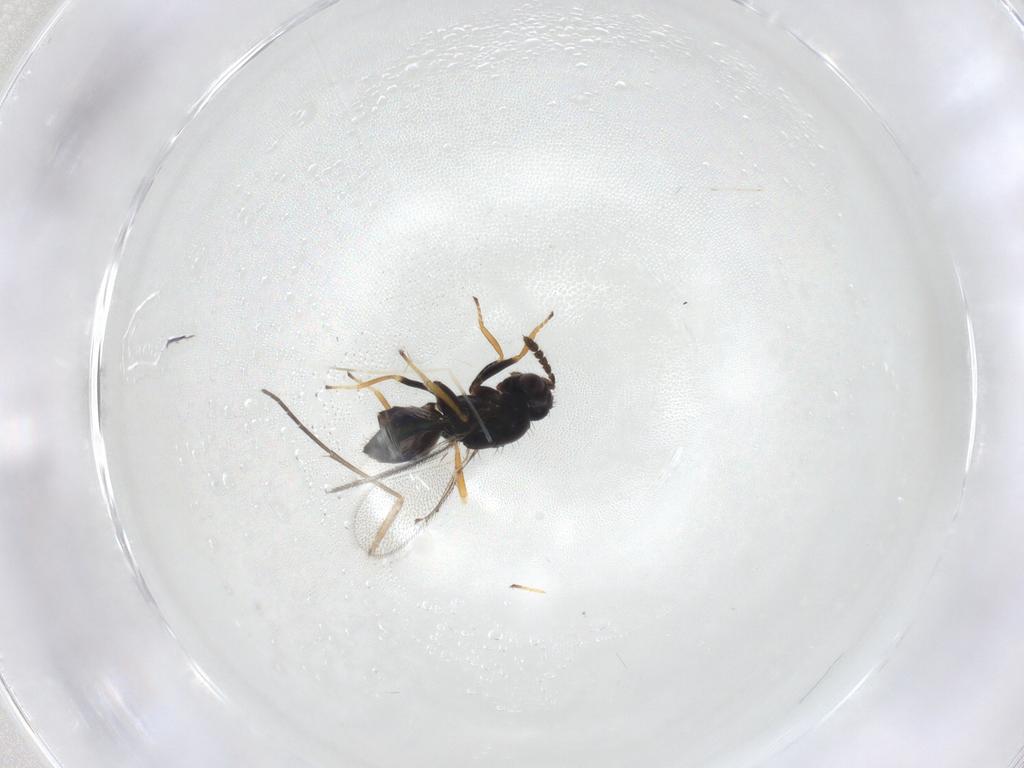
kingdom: Animalia
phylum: Arthropoda
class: Insecta
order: Hymenoptera
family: Eulophidae
